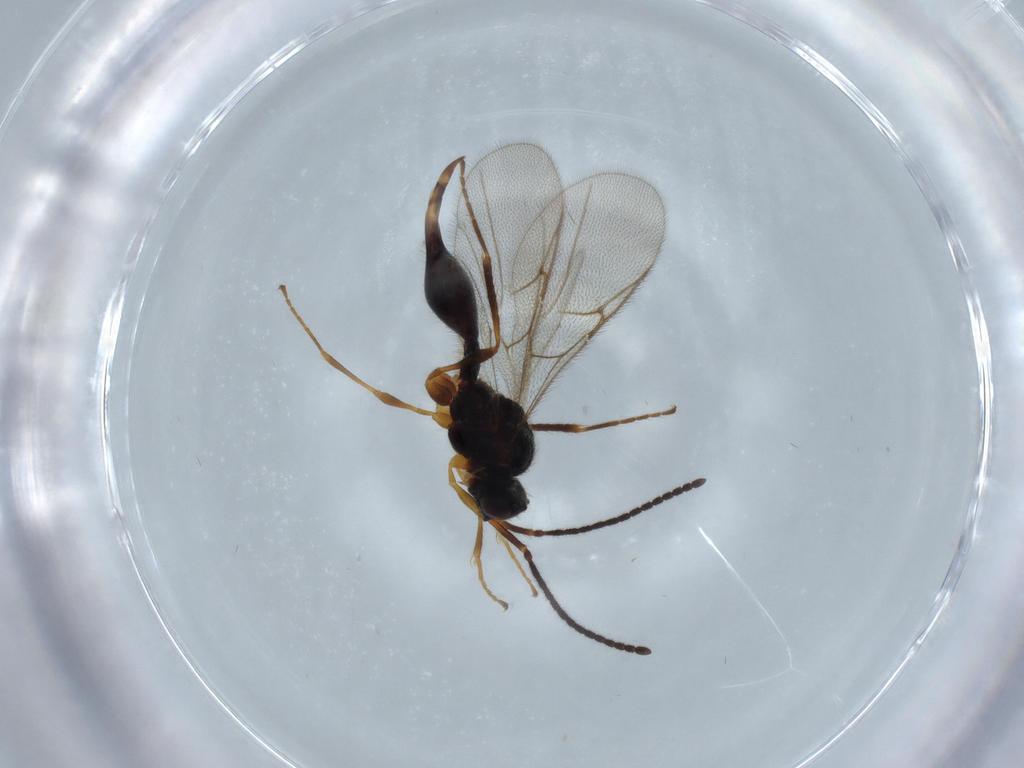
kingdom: Animalia
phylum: Arthropoda
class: Insecta
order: Hymenoptera
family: Diapriidae
